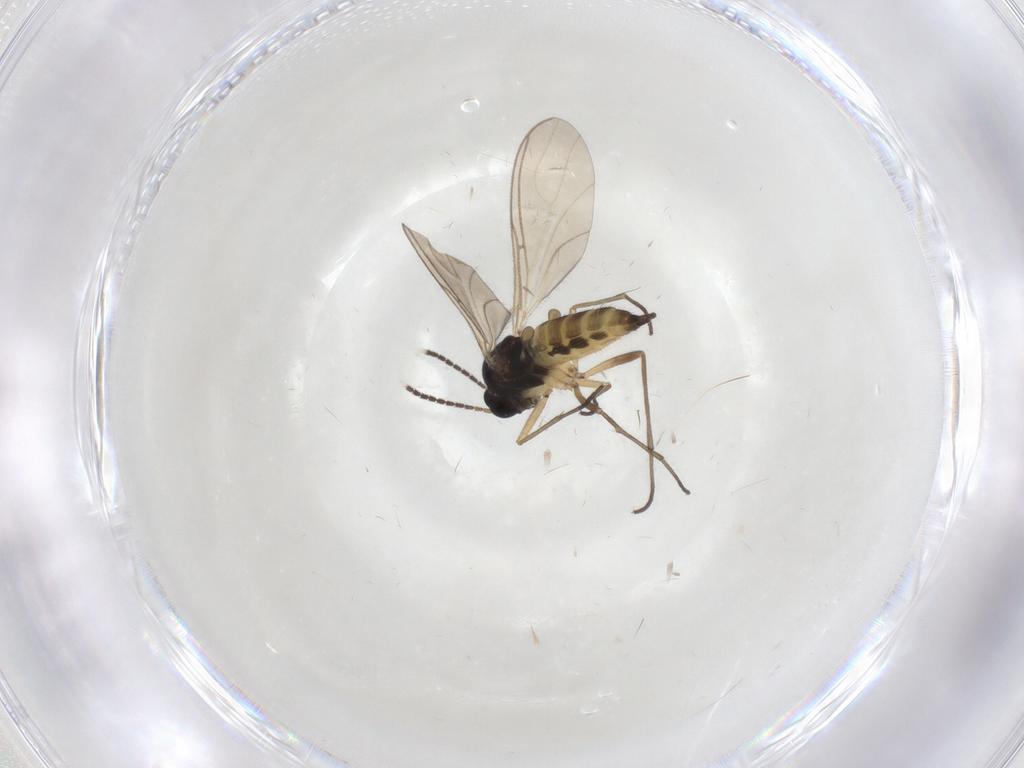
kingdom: Animalia
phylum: Arthropoda
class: Insecta
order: Diptera
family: Sciaridae
